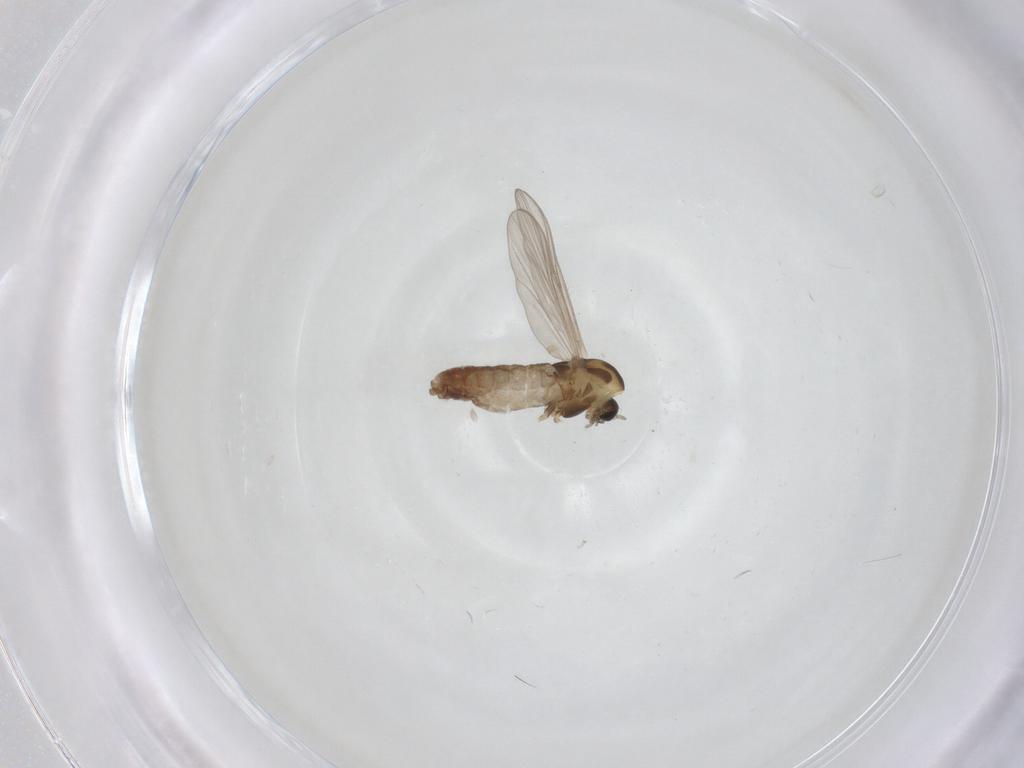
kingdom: Animalia
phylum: Arthropoda
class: Insecta
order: Diptera
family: Chironomidae
